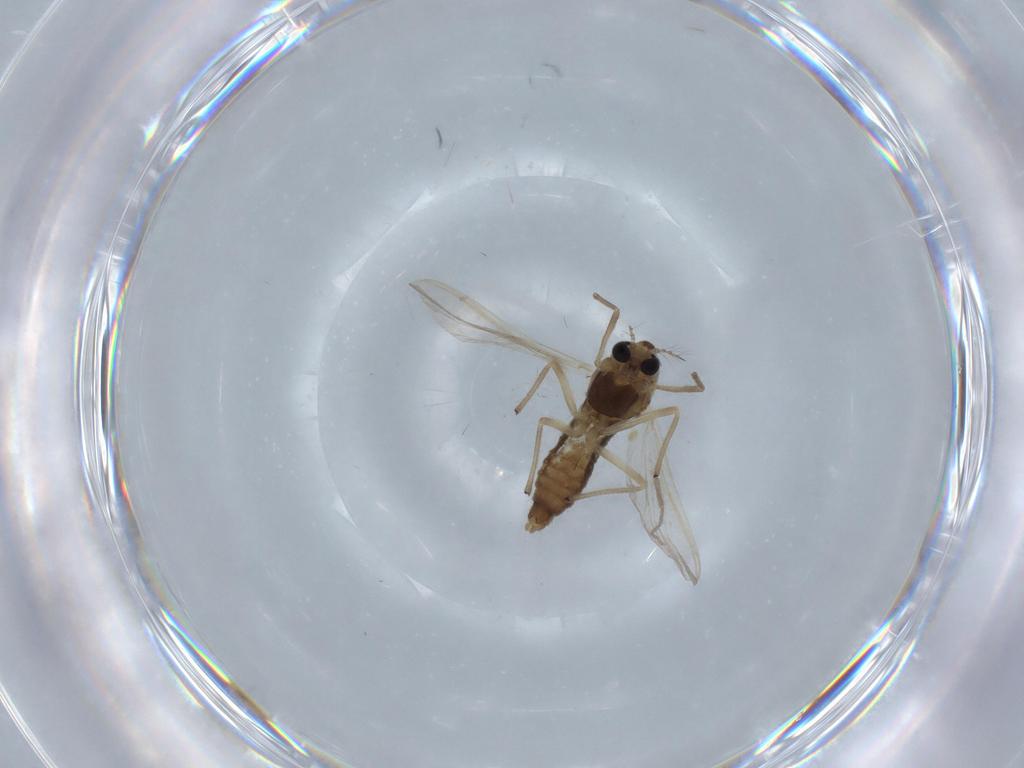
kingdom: Animalia
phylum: Arthropoda
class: Insecta
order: Diptera
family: Chironomidae
